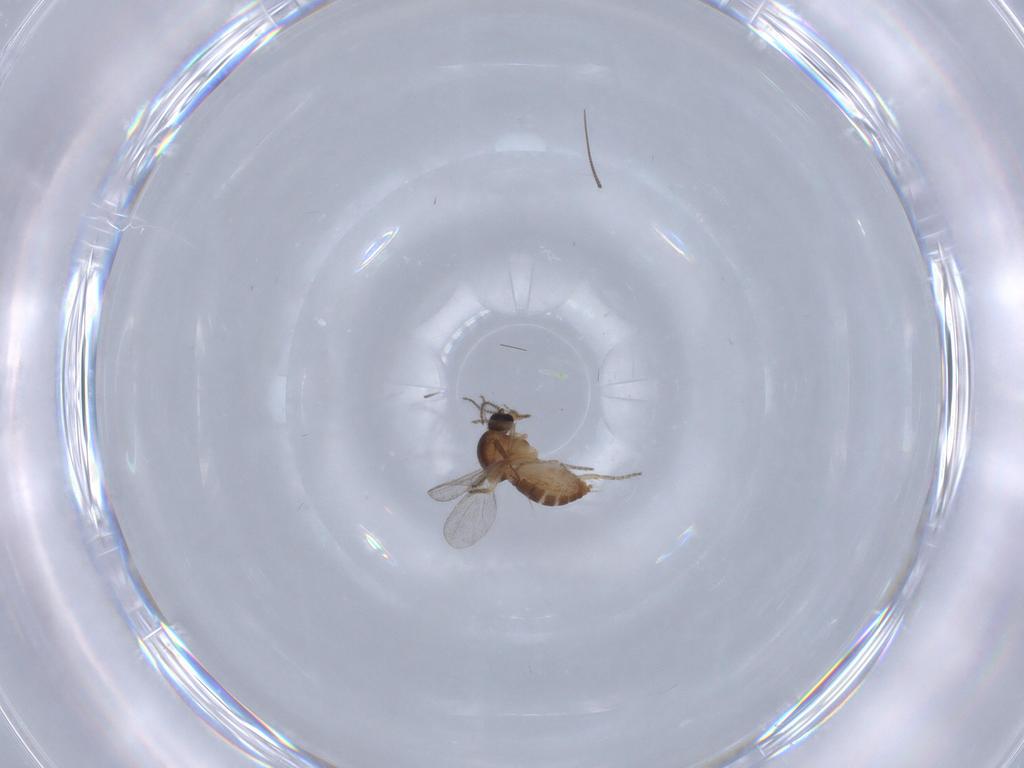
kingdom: Animalia
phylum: Arthropoda
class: Insecta
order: Diptera
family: Ceratopogonidae
